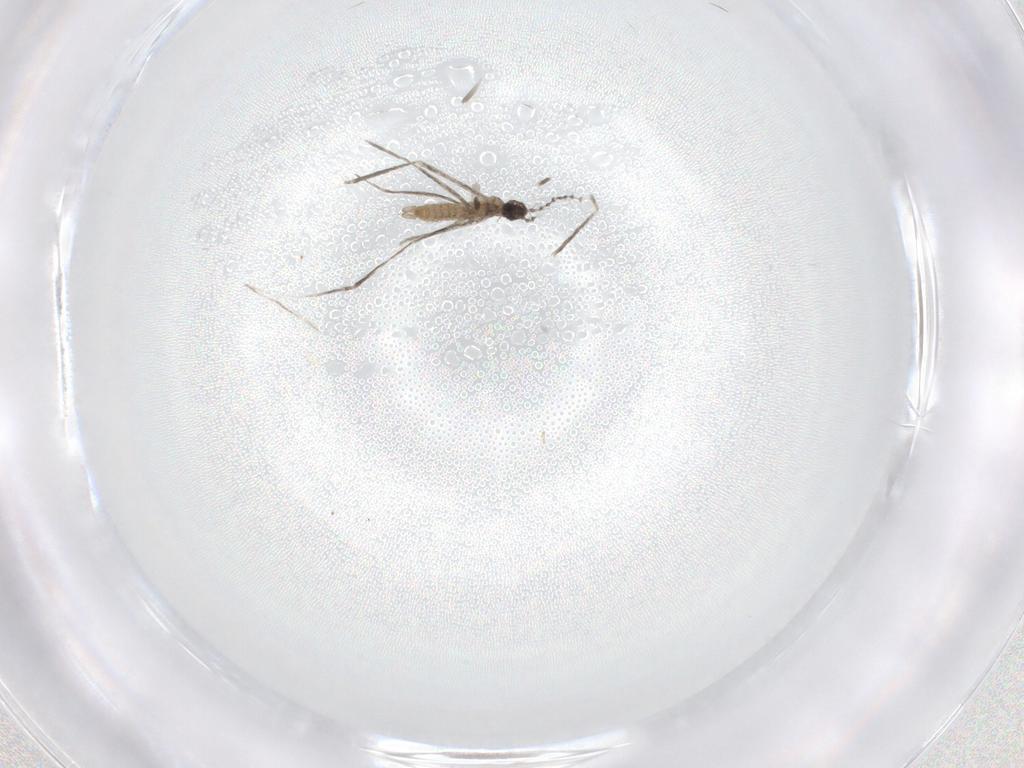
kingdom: Animalia
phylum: Arthropoda
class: Insecta
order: Diptera
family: Cecidomyiidae
